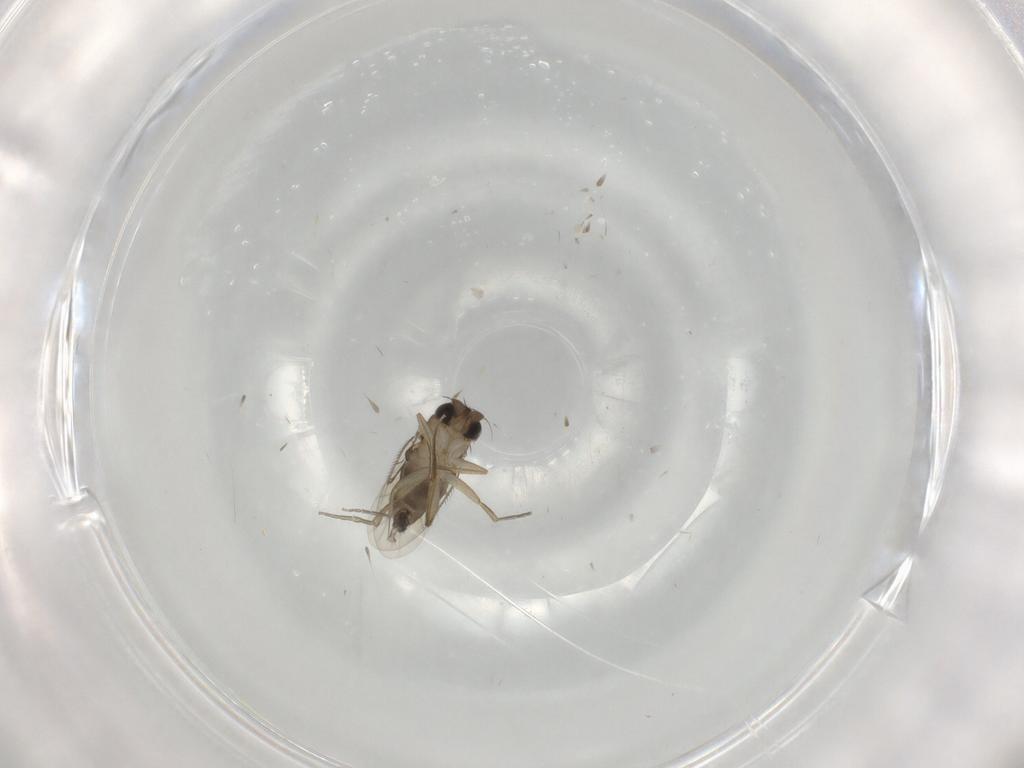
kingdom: Animalia
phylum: Arthropoda
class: Insecta
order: Diptera
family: Cecidomyiidae
